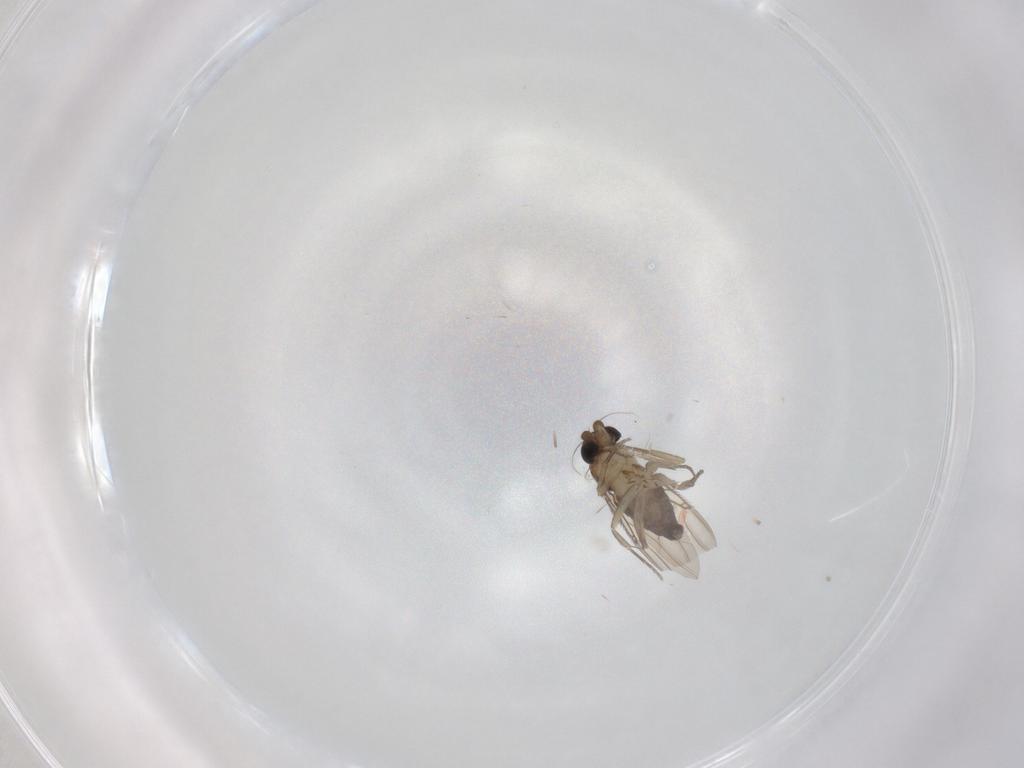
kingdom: Animalia
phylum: Arthropoda
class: Insecta
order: Diptera
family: Phoridae
